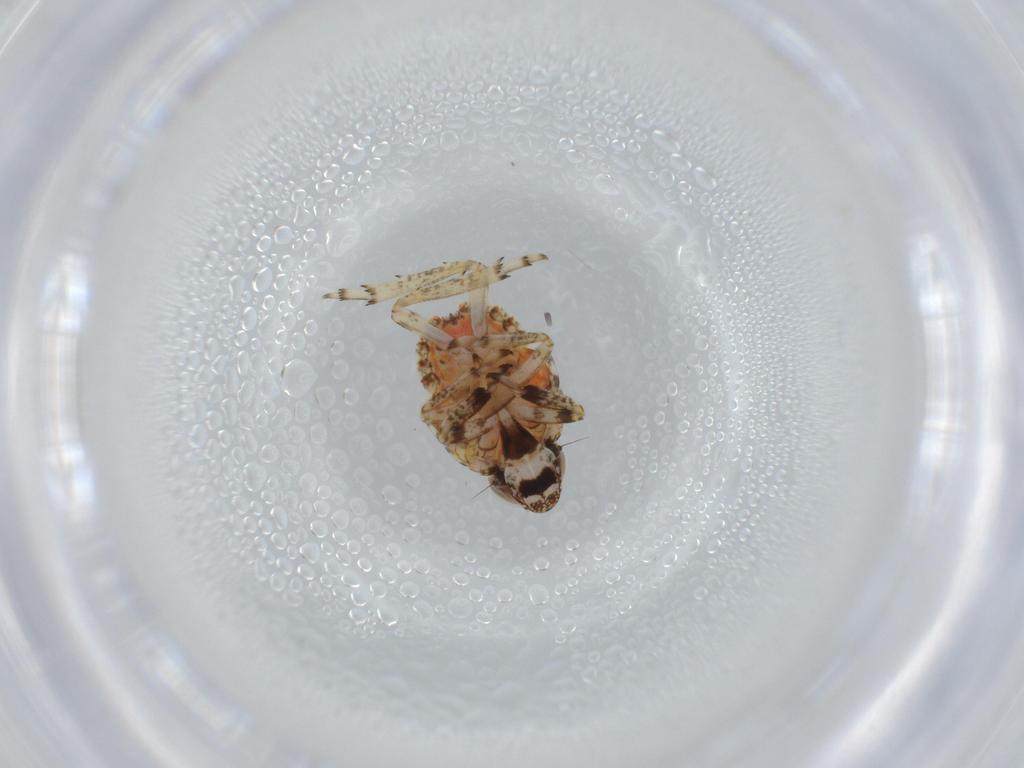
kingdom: Animalia
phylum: Arthropoda
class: Insecta
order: Hemiptera
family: Issidae
